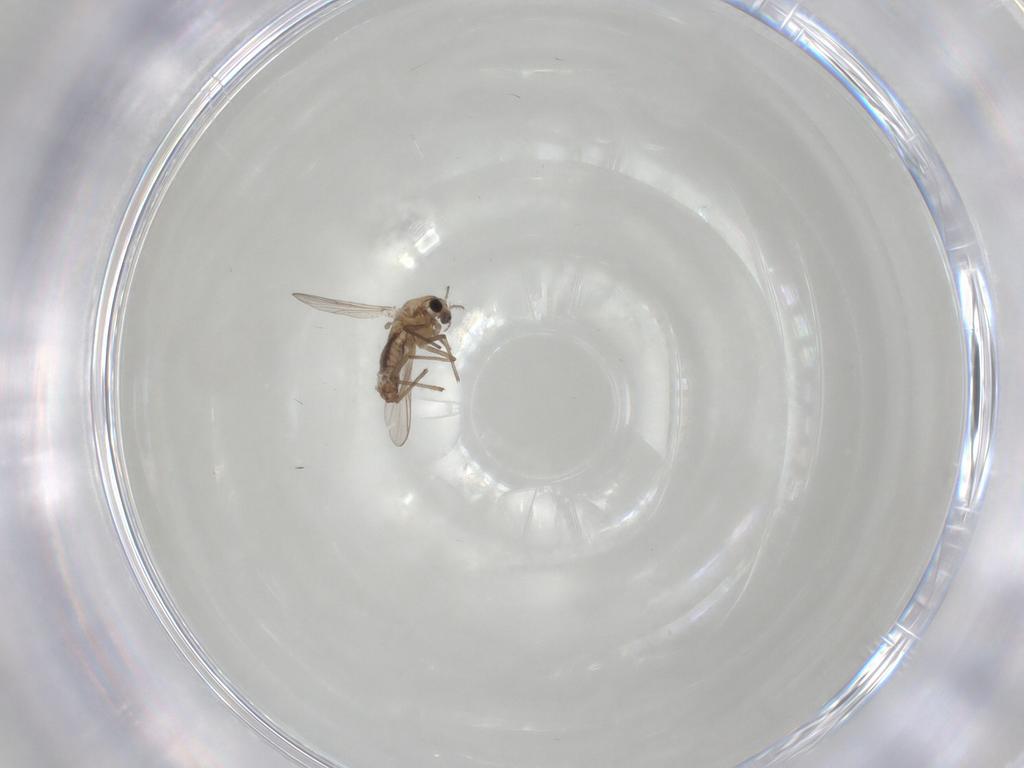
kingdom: Animalia
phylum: Arthropoda
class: Insecta
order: Diptera
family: Chironomidae
